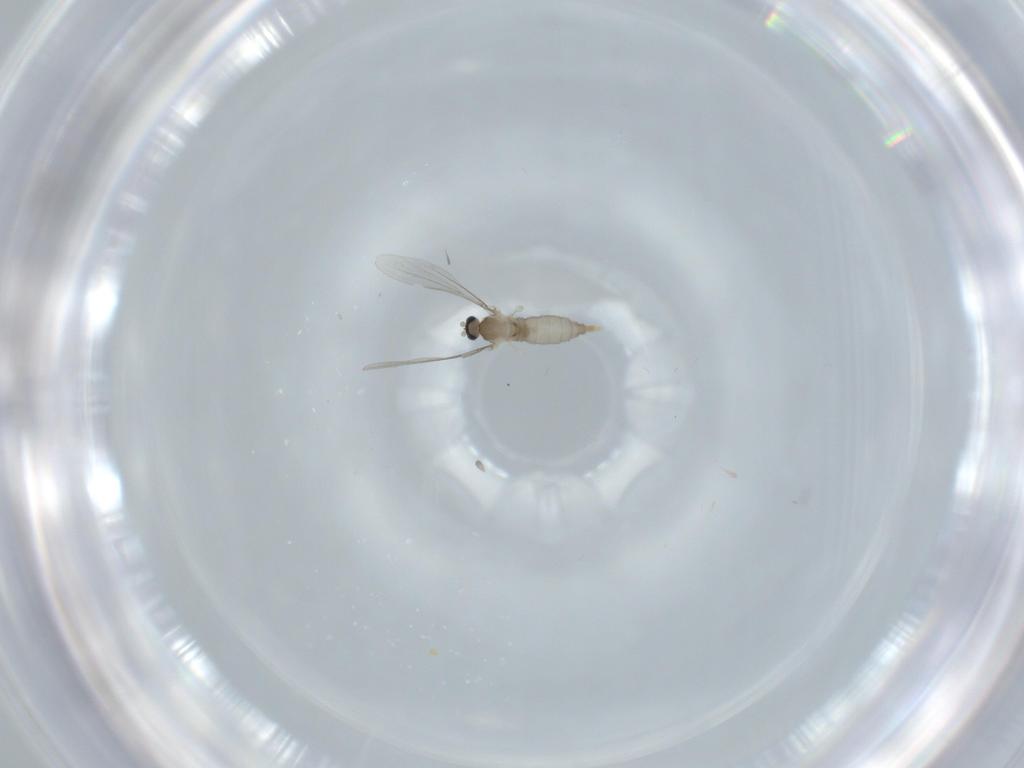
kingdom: Animalia
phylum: Arthropoda
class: Insecta
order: Diptera
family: Cecidomyiidae
